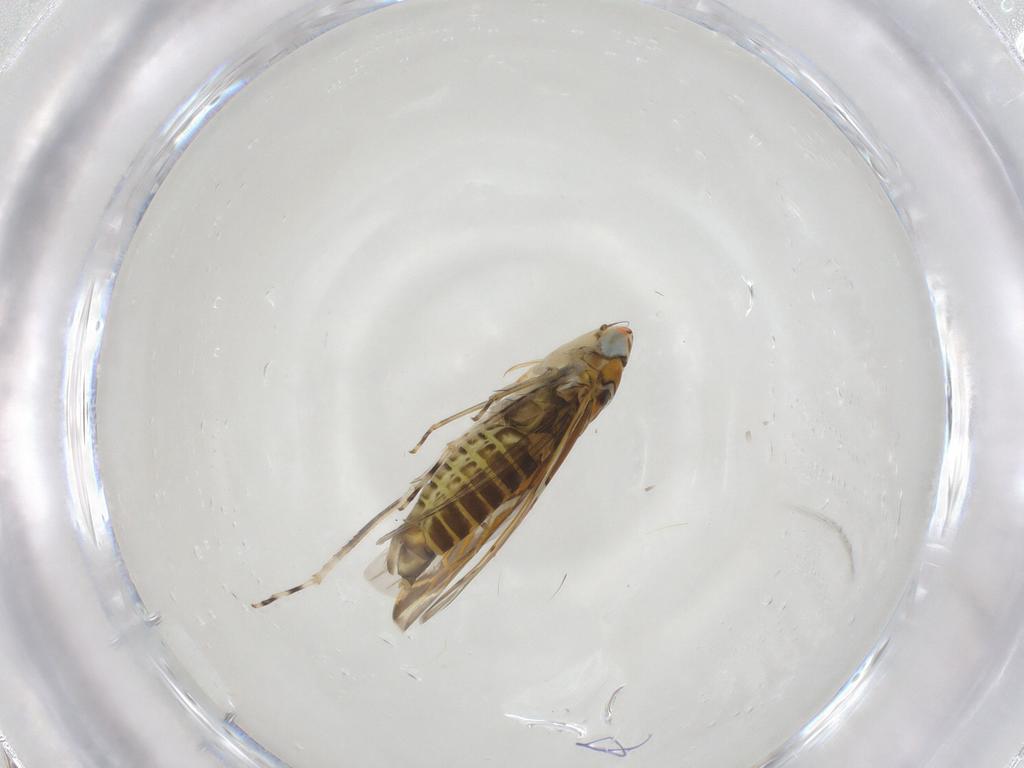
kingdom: Animalia
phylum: Arthropoda
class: Insecta
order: Hemiptera
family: Cicadellidae
